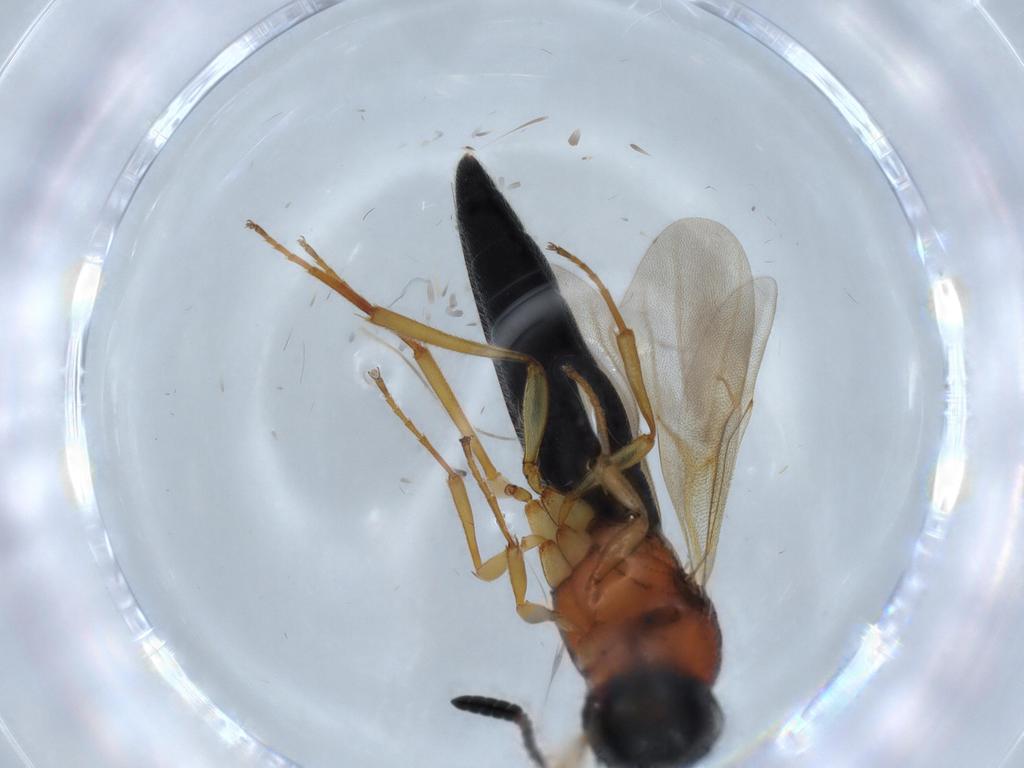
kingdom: Animalia
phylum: Arthropoda
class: Insecta
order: Hymenoptera
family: Scelionidae
